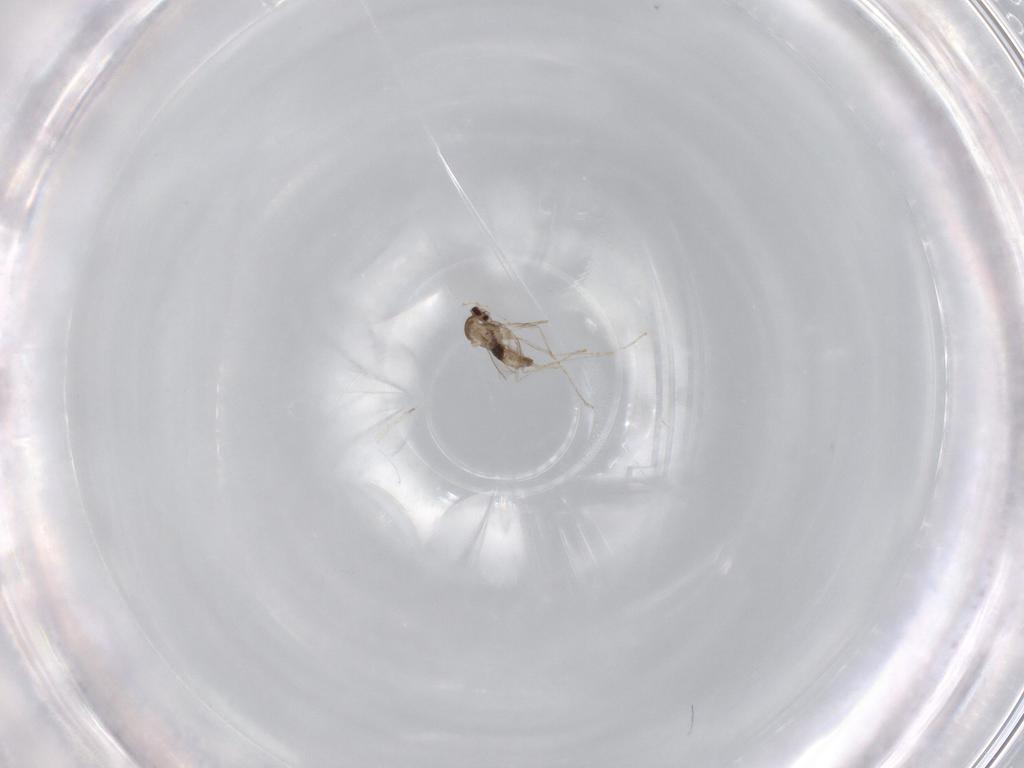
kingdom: Animalia
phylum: Arthropoda
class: Insecta
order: Diptera
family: Cecidomyiidae
